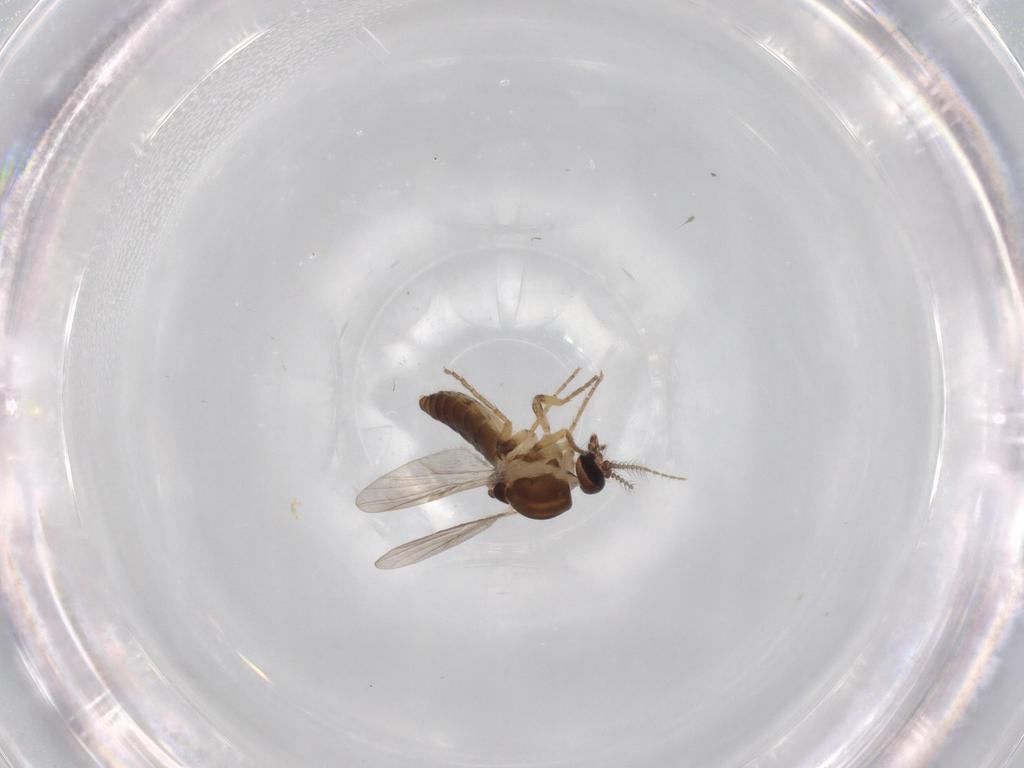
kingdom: Animalia
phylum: Arthropoda
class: Insecta
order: Diptera
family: Ceratopogonidae
